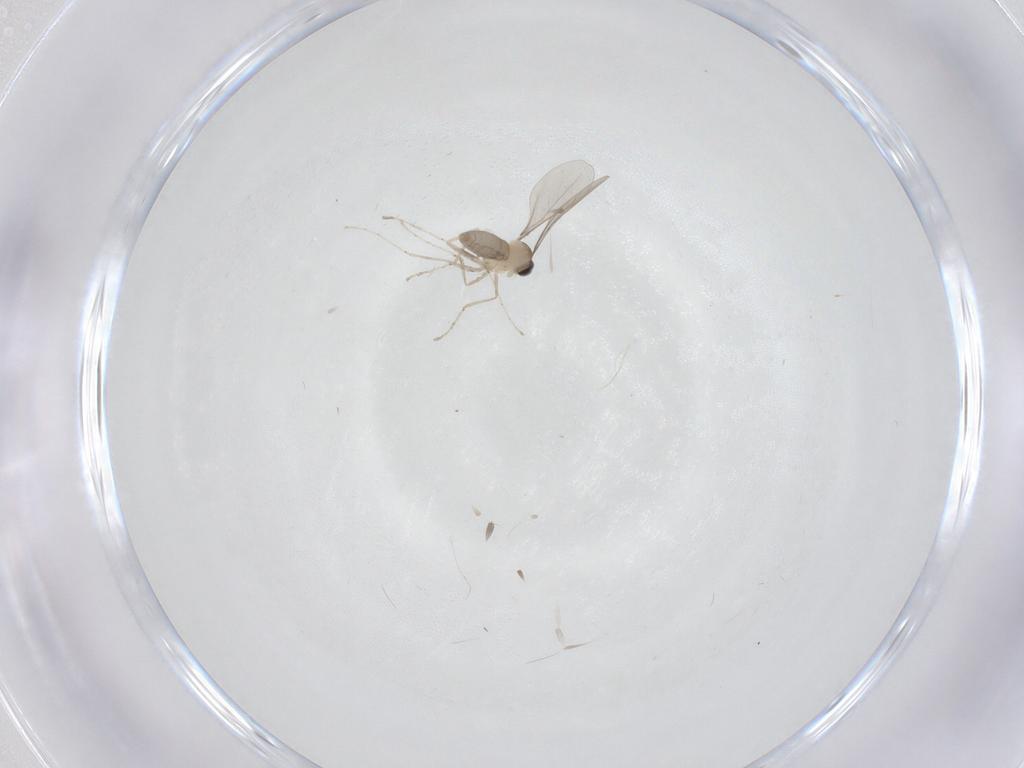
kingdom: Animalia
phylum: Arthropoda
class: Insecta
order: Diptera
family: Cecidomyiidae
